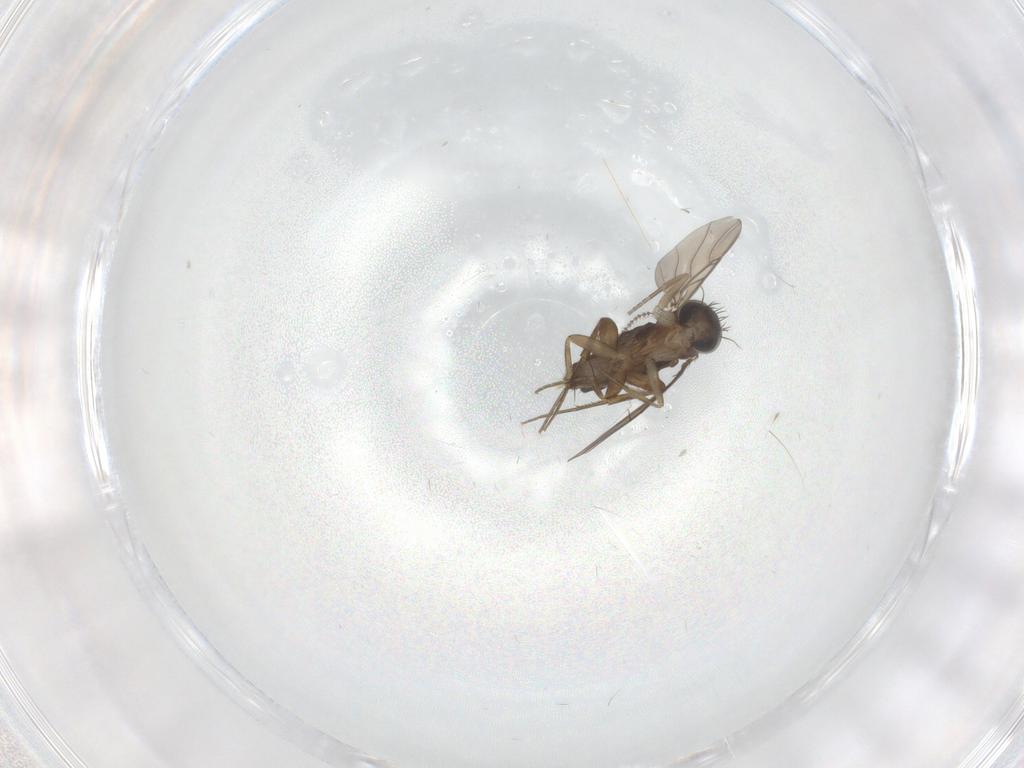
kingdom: Animalia
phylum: Arthropoda
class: Insecta
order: Diptera
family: Chironomidae
